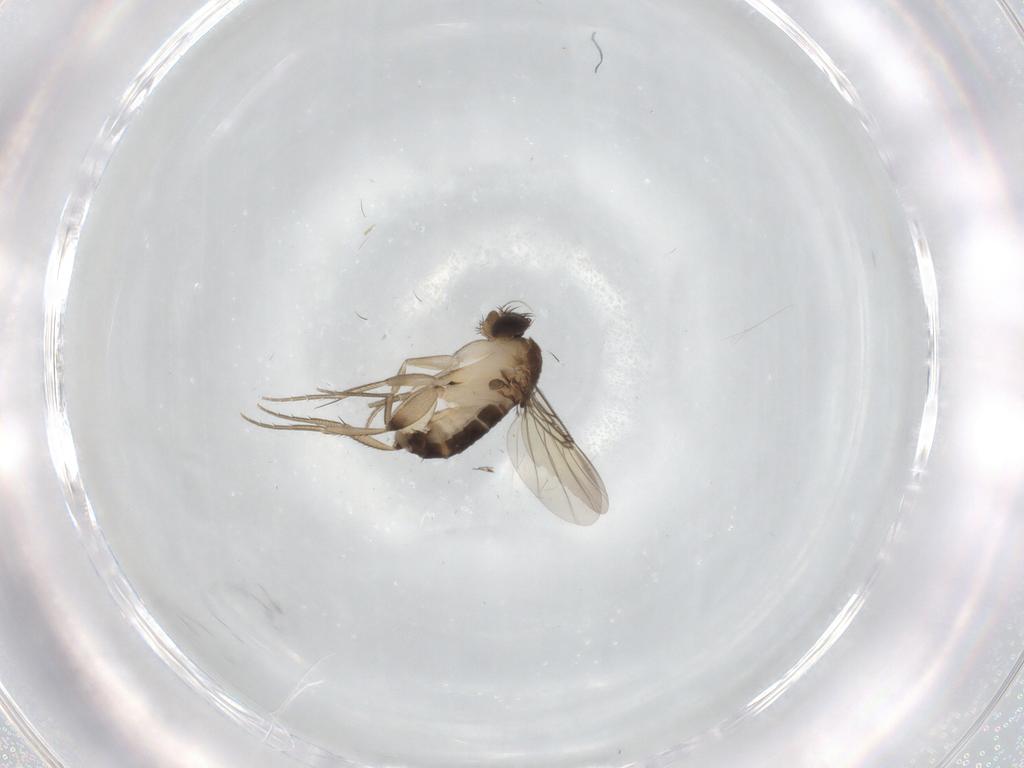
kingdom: Animalia
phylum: Arthropoda
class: Insecta
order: Diptera
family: Phoridae
